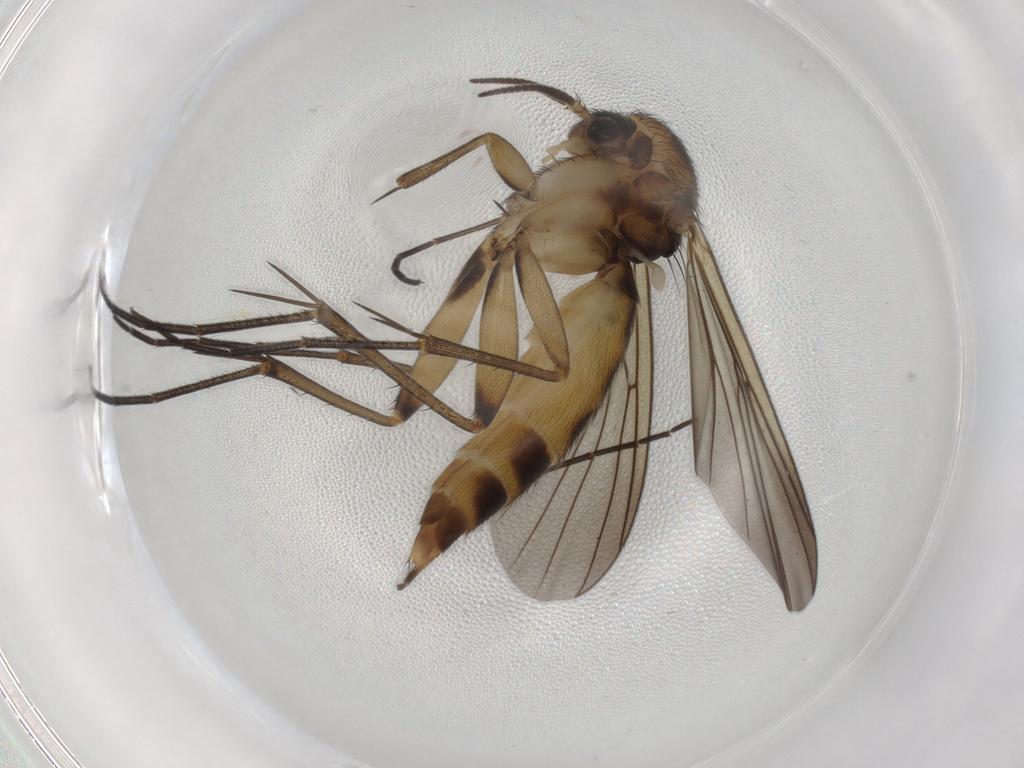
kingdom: Animalia
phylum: Arthropoda
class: Insecta
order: Diptera
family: Mycetophilidae
